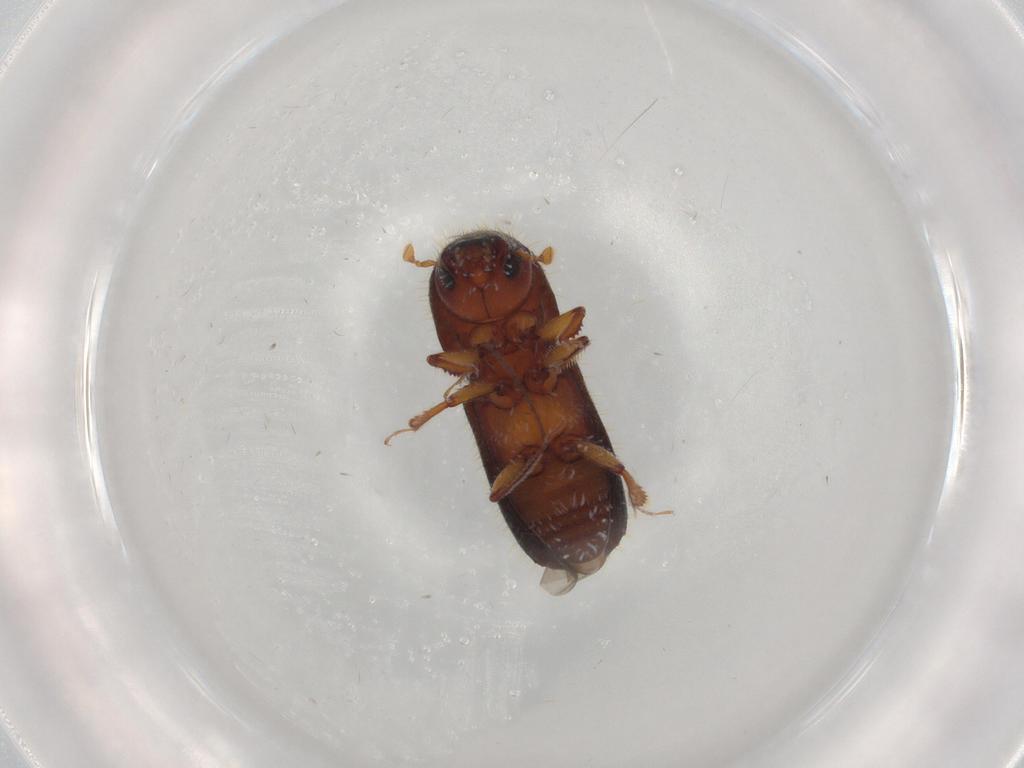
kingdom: Animalia
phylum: Arthropoda
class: Insecta
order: Coleoptera
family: Curculionidae
